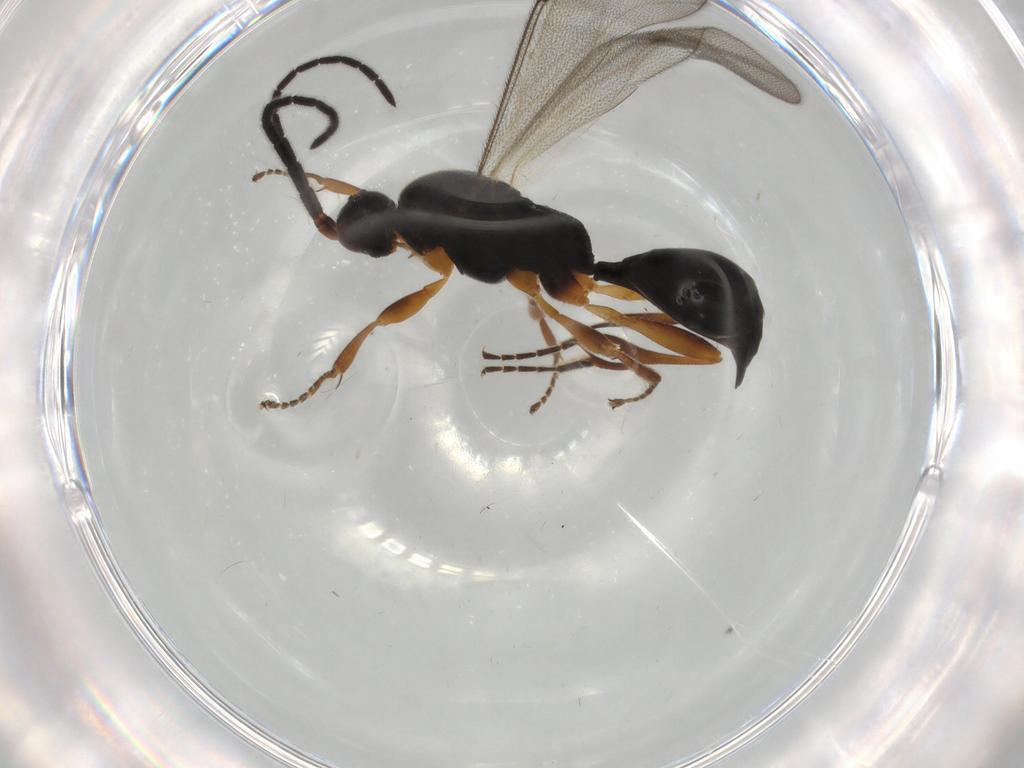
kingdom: Animalia
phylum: Arthropoda
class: Insecta
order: Hymenoptera
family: Proctotrupidae
